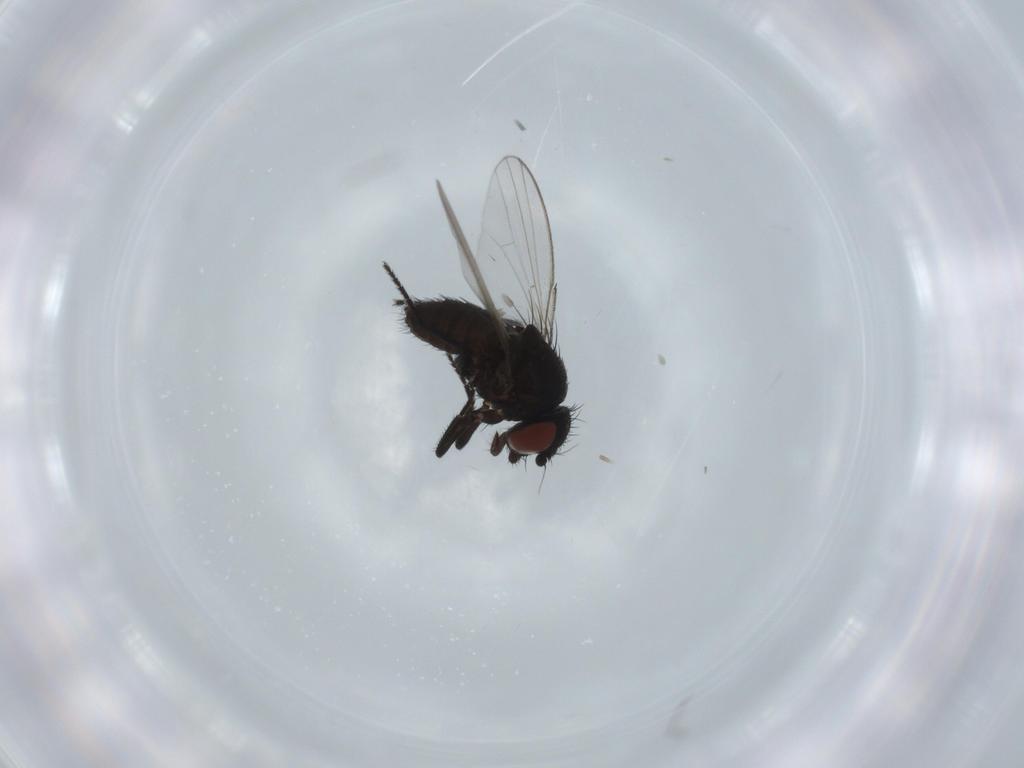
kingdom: Animalia
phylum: Arthropoda
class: Insecta
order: Diptera
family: Milichiidae
